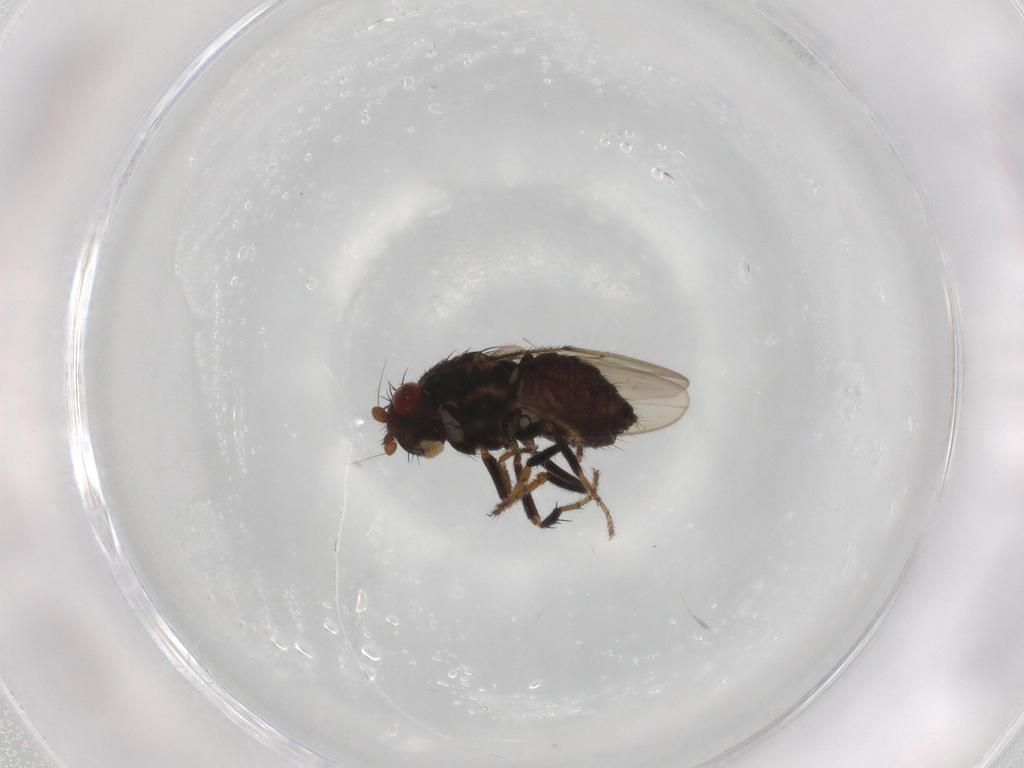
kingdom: Animalia
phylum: Arthropoda
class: Insecta
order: Diptera
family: Sphaeroceridae
